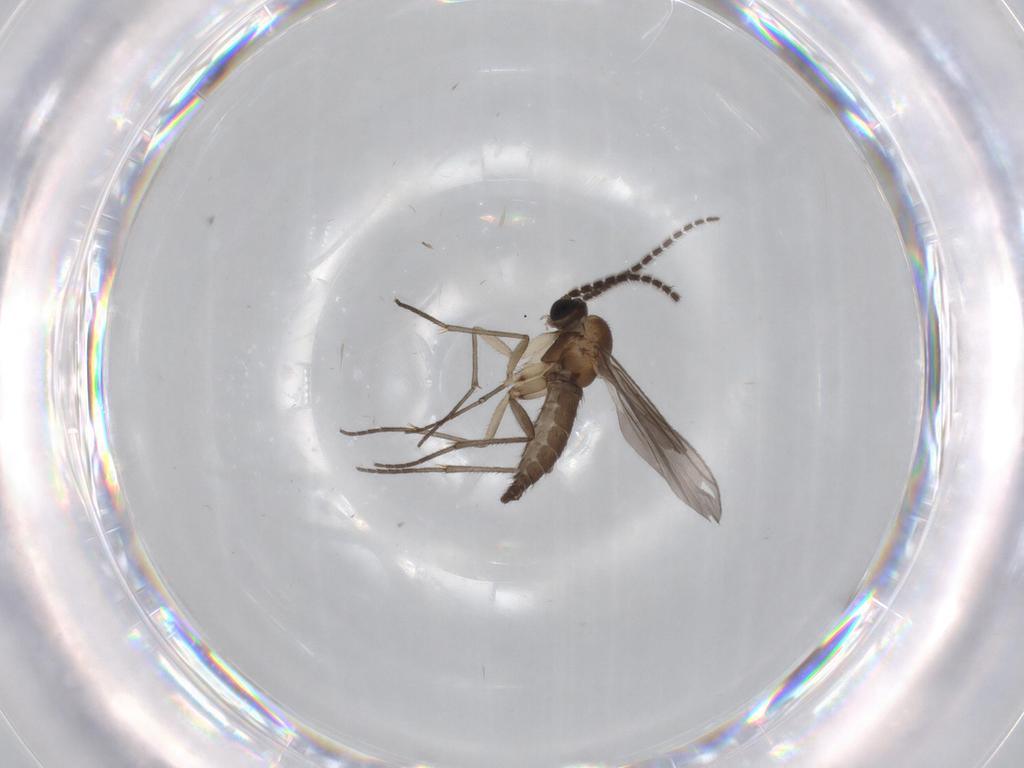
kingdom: Animalia
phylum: Arthropoda
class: Insecta
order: Diptera
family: Sciaridae
